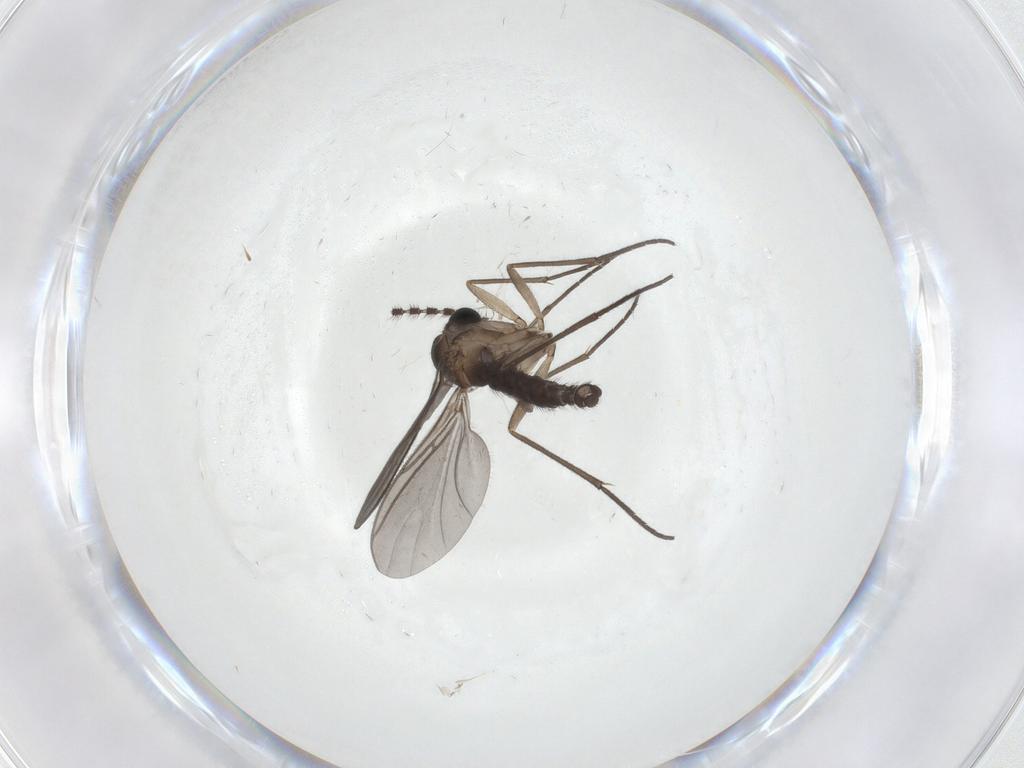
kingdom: Animalia
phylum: Arthropoda
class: Insecta
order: Diptera
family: Sciaridae
